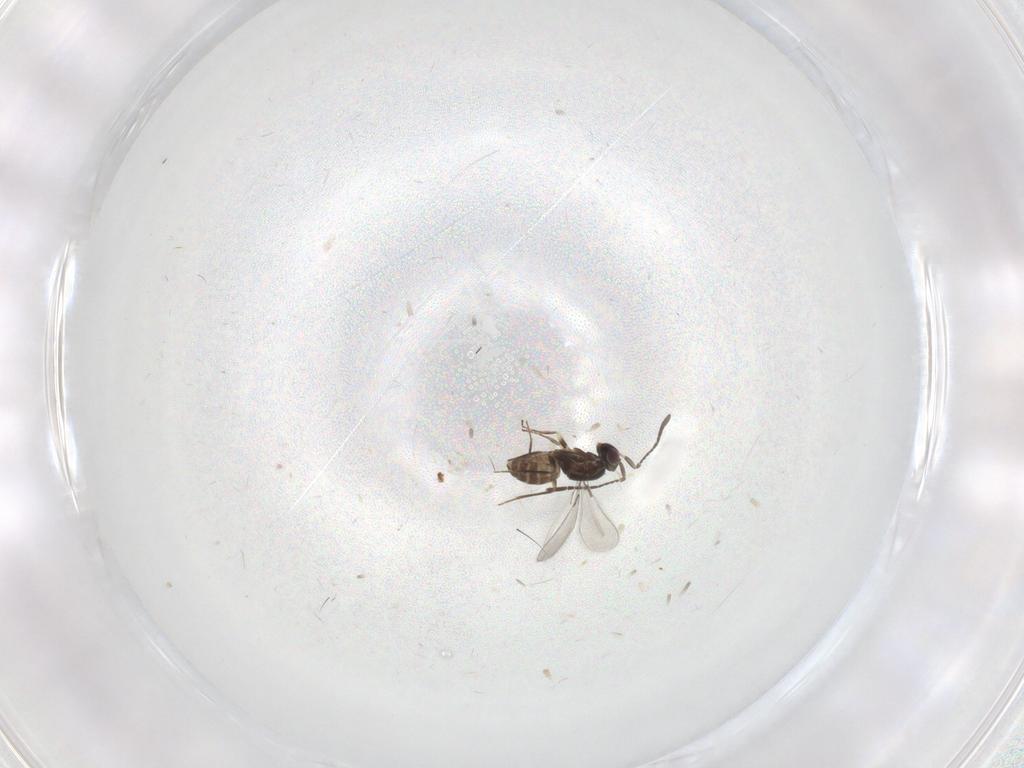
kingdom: Animalia
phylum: Arthropoda
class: Insecta
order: Hymenoptera
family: Mymaridae
